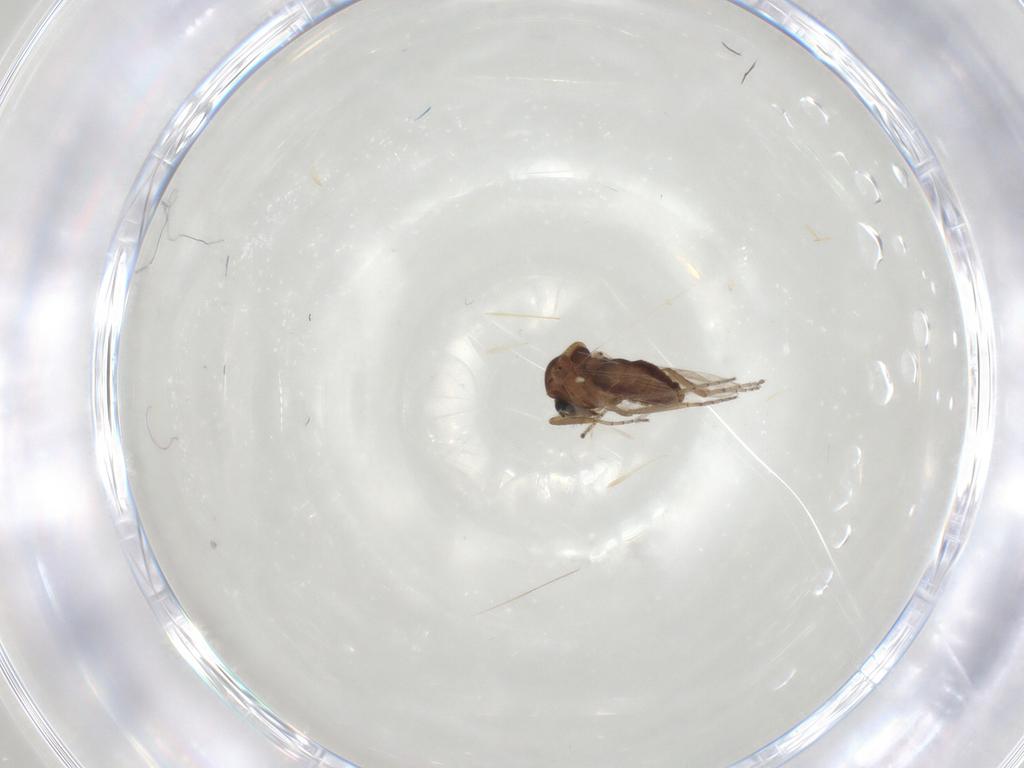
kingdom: Animalia
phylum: Arthropoda
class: Insecta
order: Diptera
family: Ceratopogonidae
